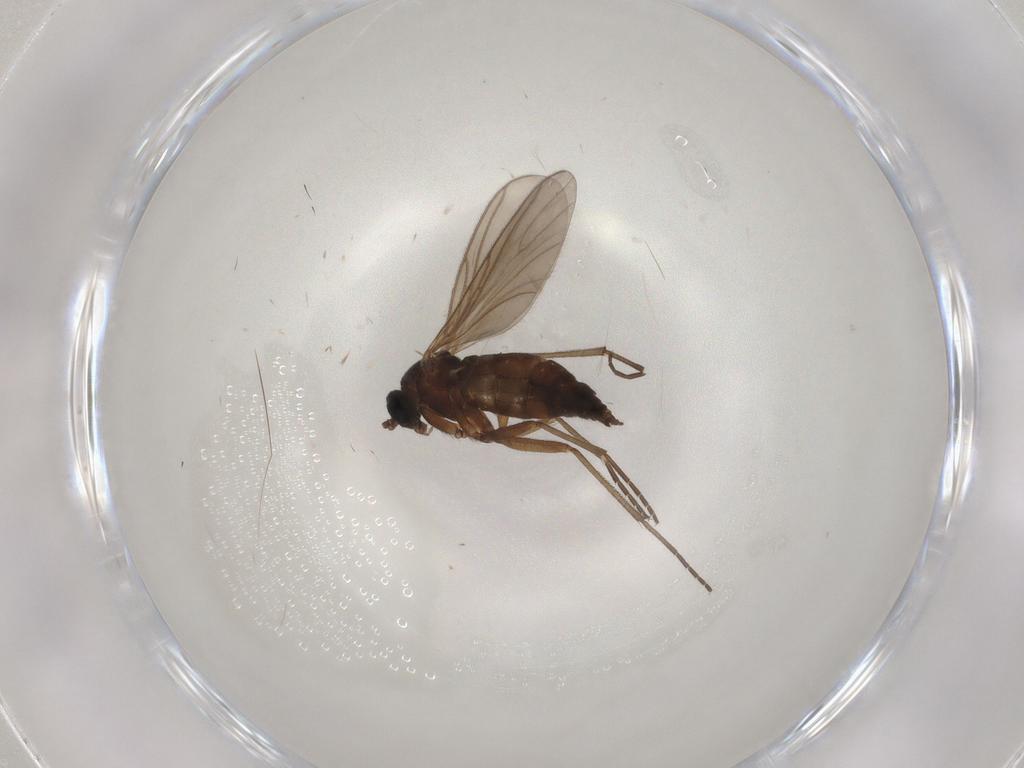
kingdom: Animalia
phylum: Arthropoda
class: Insecta
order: Diptera
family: Sciaridae
